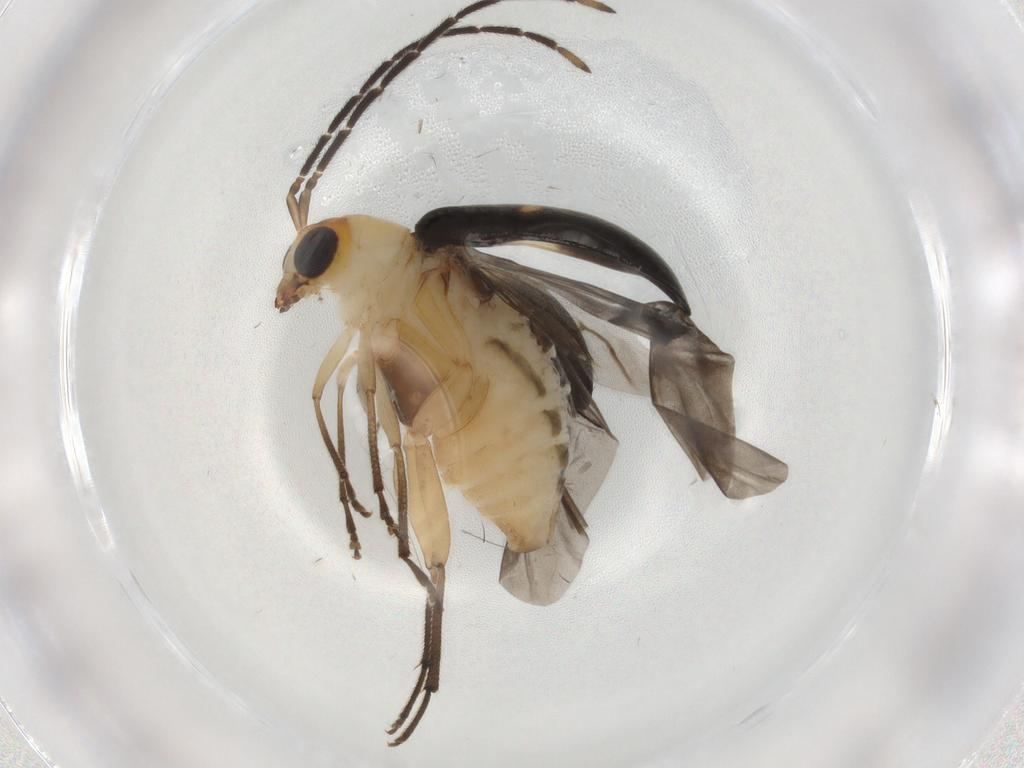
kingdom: Animalia
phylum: Arthropoda
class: Insecta
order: Coleoptera
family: Chrysomelidae
